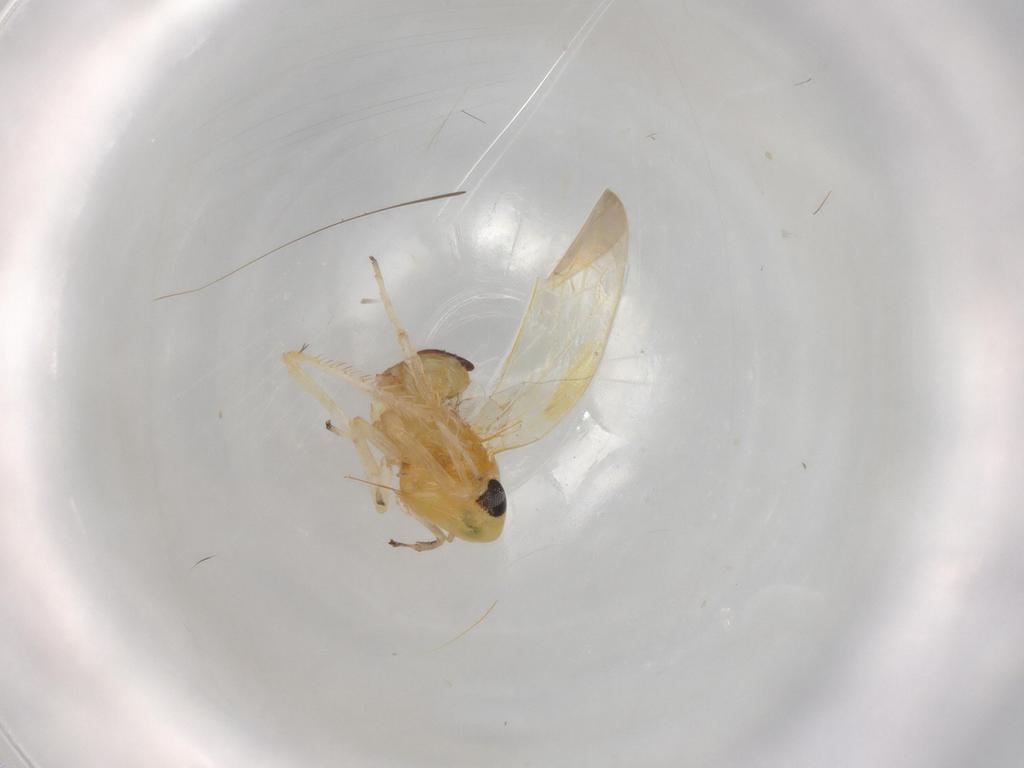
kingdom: Animalia
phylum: Arthropoda
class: Insecta
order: Hemiptera
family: Cicadellidae
